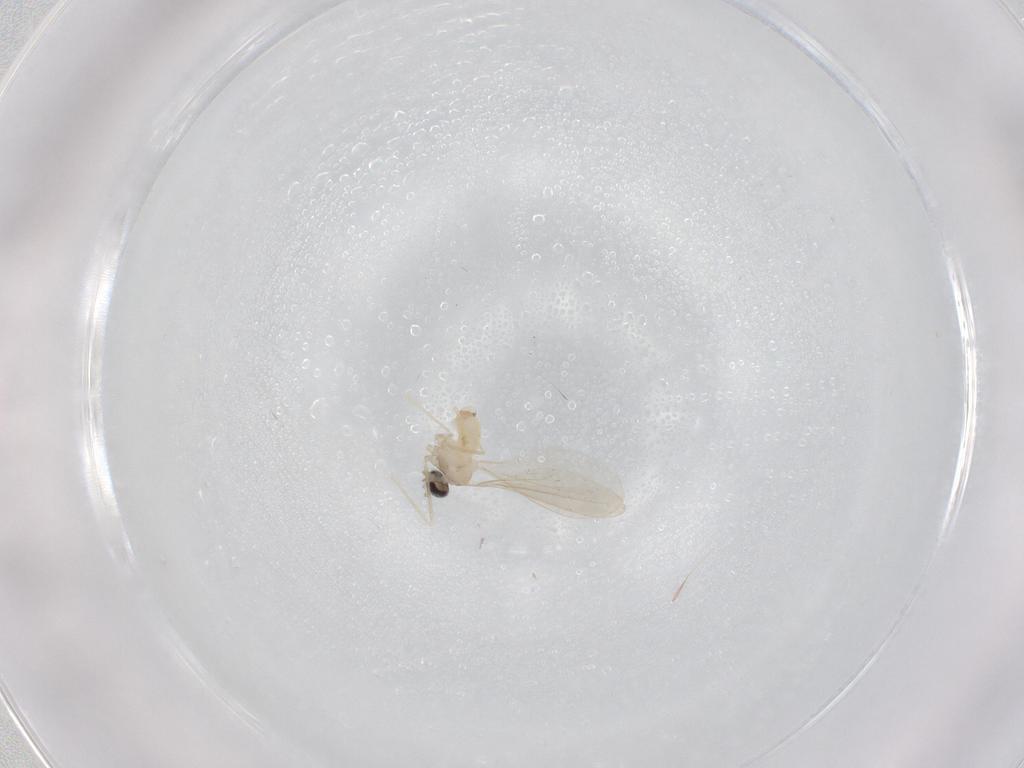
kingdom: Animalia
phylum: Arthropoda
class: Insecta
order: Diptera
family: Cecidomyiidae
